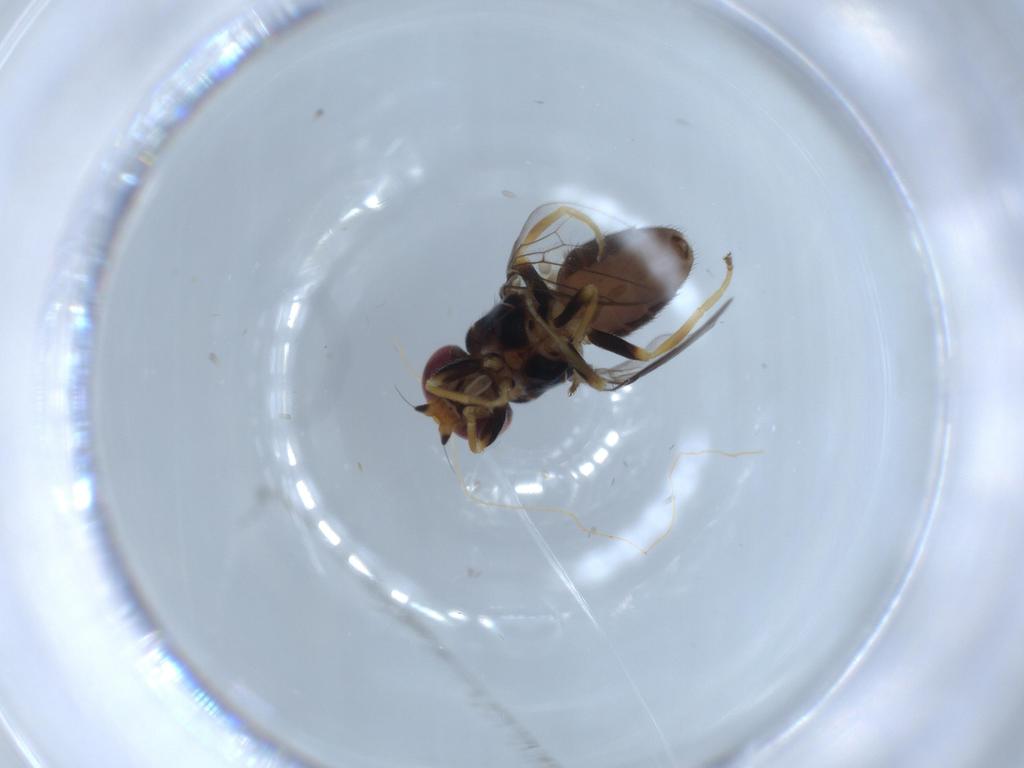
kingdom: Animalia
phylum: Arthropoda
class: Insecta
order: Diptera
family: Chloropidae
